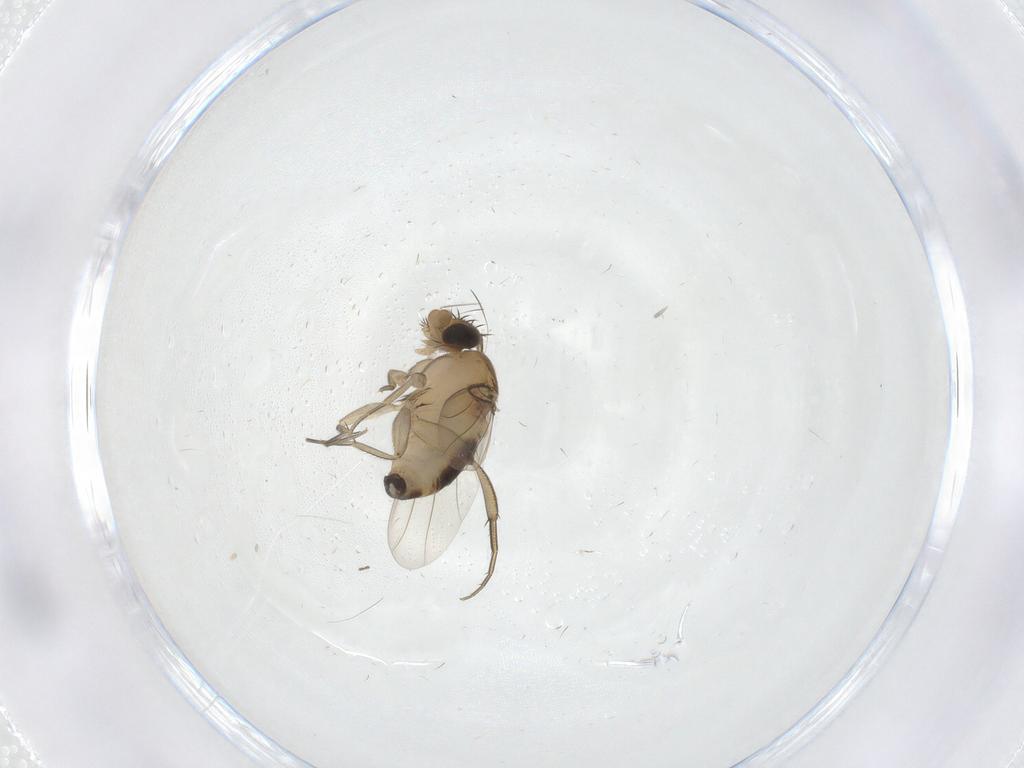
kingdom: Animalia
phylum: Arthropoda
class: Insecta
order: Diptera
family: Phoridae
